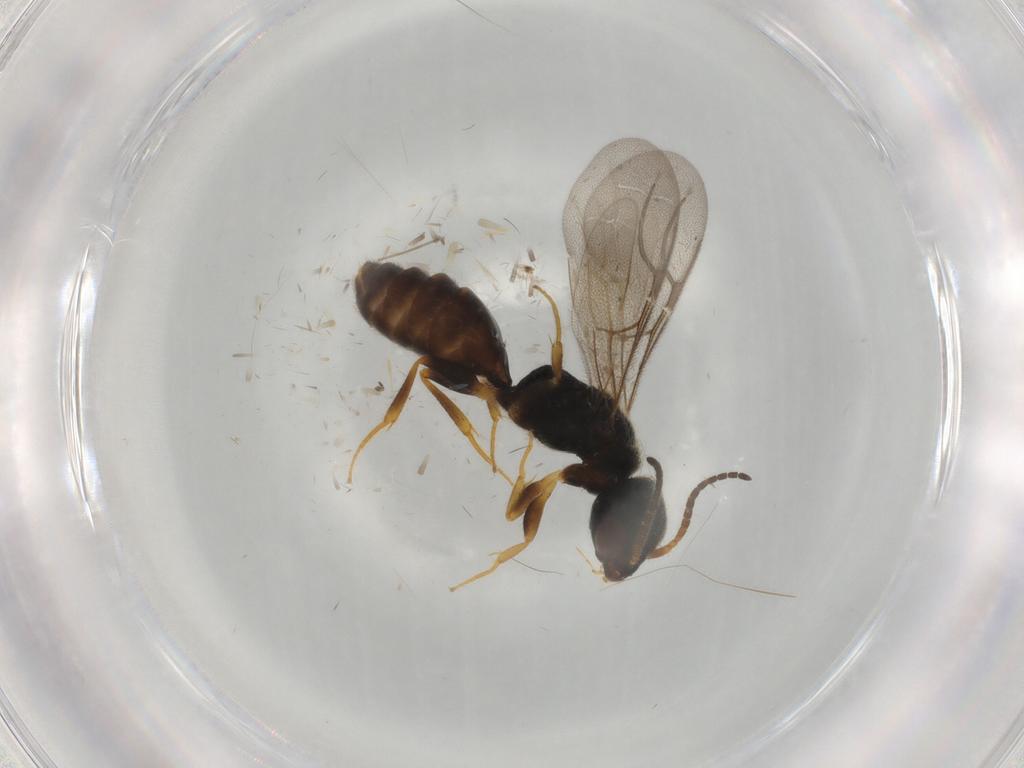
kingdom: Animalia
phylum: Arthropoda
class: Insecta
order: Hymenoptera
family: Bethylidae
